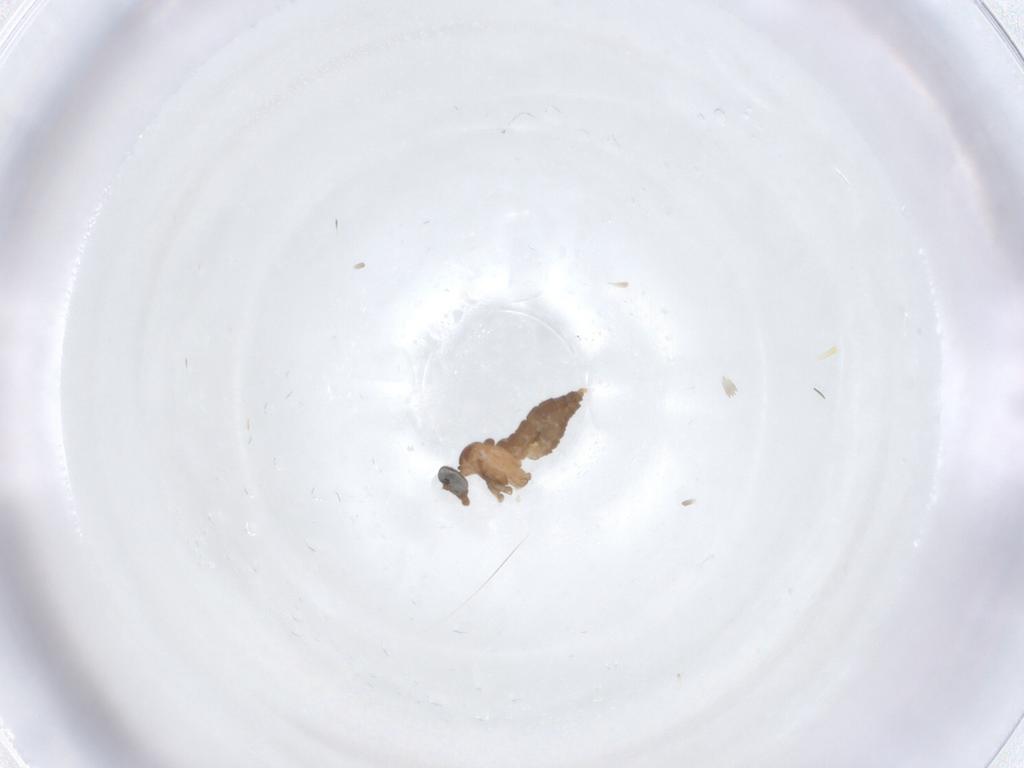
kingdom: Animalia
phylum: Arthropoda
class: Insecta
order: Diptera
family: Cecidomyiidae
